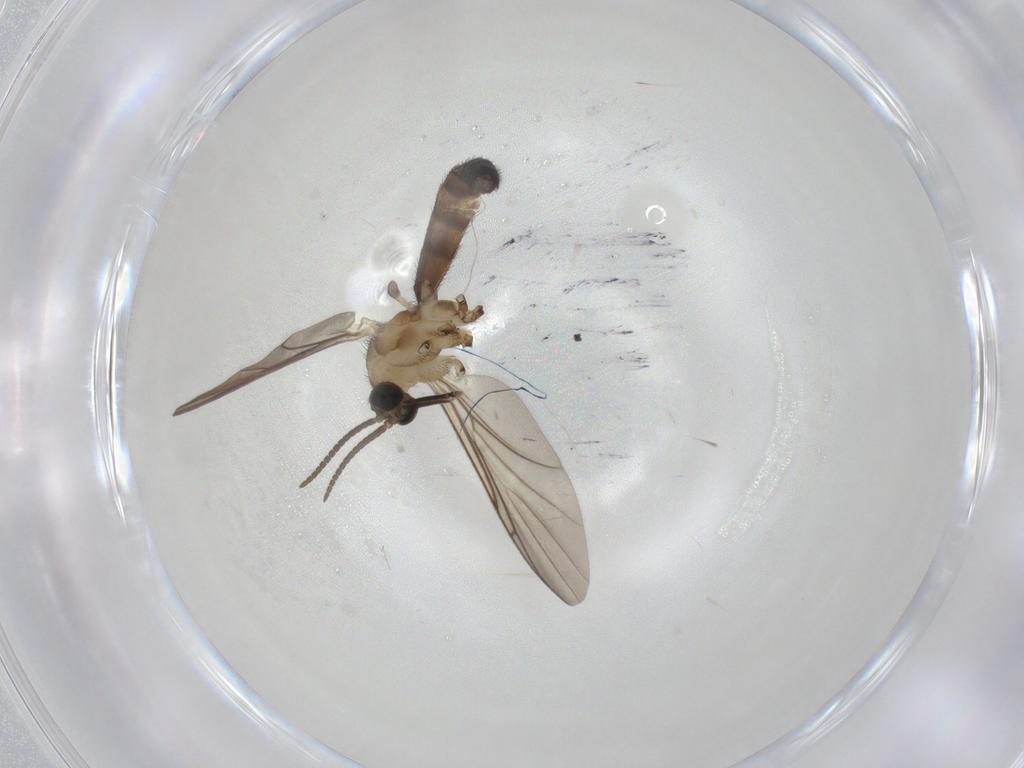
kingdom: Animalia
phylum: Arthropoda
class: Insecta
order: Diptera
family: Keroplatidae
